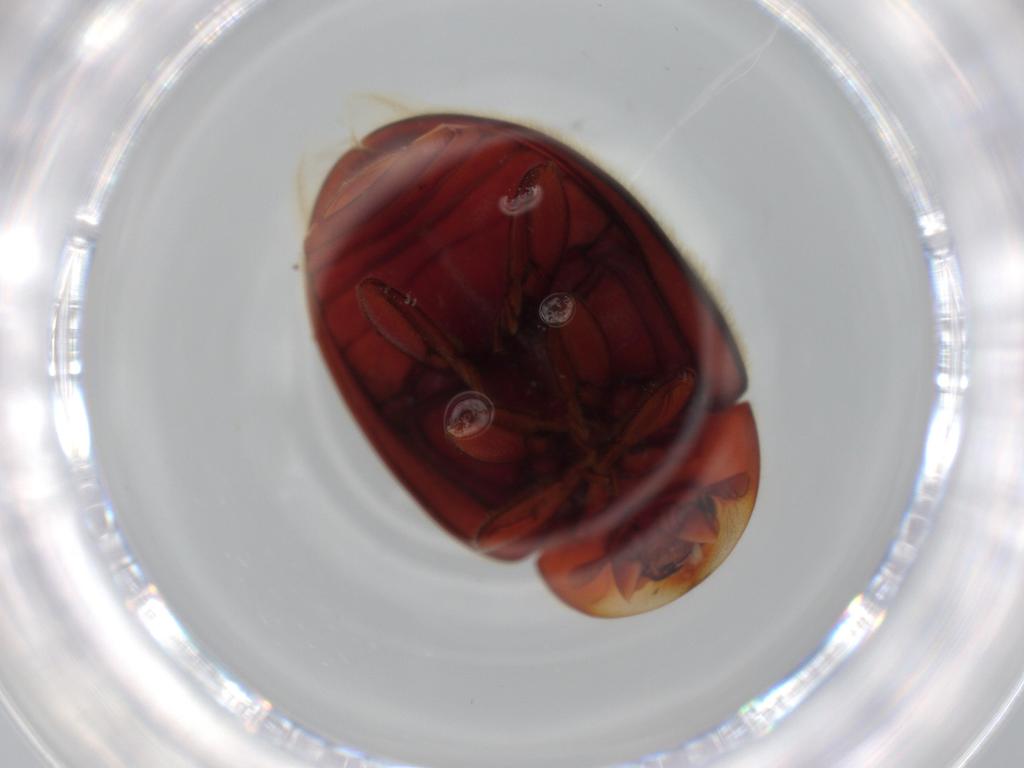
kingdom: Animalia
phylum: Arthropoda
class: Insecta
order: Coleoptera
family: Coccinellidae
